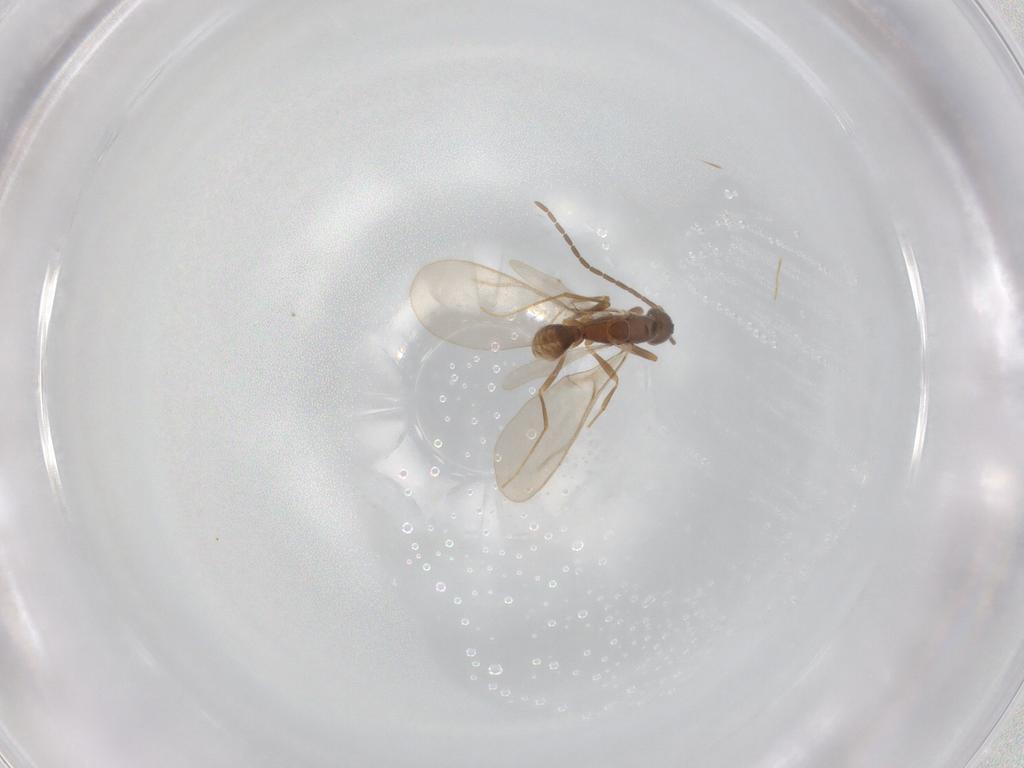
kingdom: Animalia
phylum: Arthropoda
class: Insecta
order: Hymenoptera
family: Formicidae
